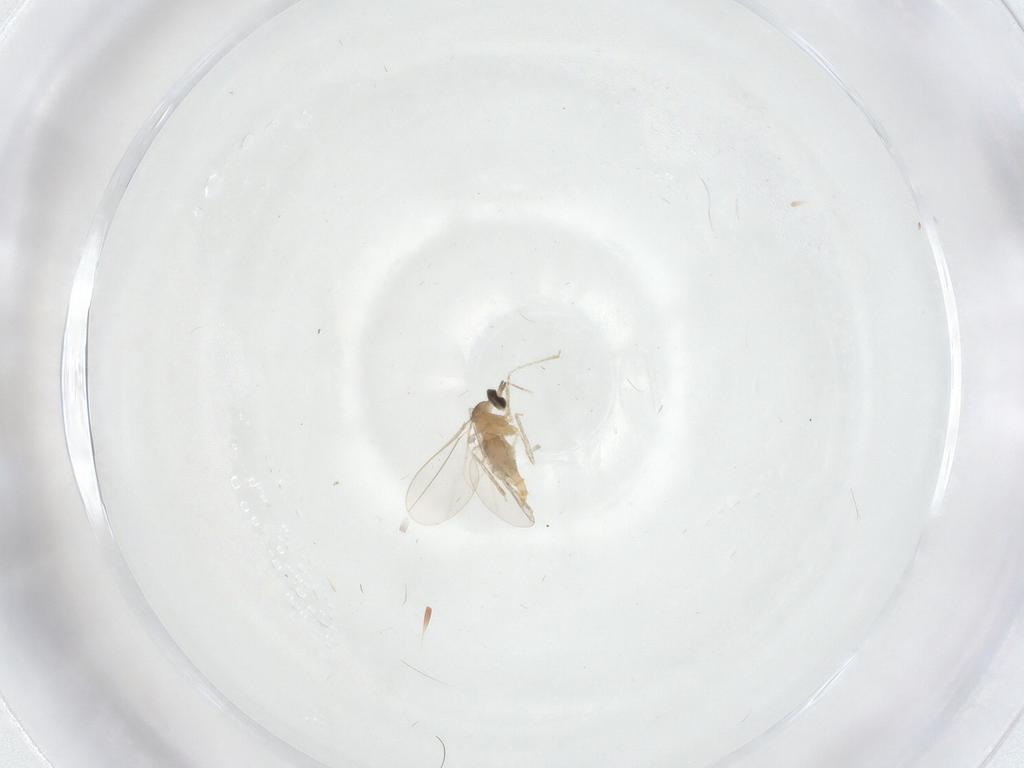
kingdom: Animalia
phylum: Arthropoda
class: Insecta
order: Diptera
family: Cecidomyiidae
